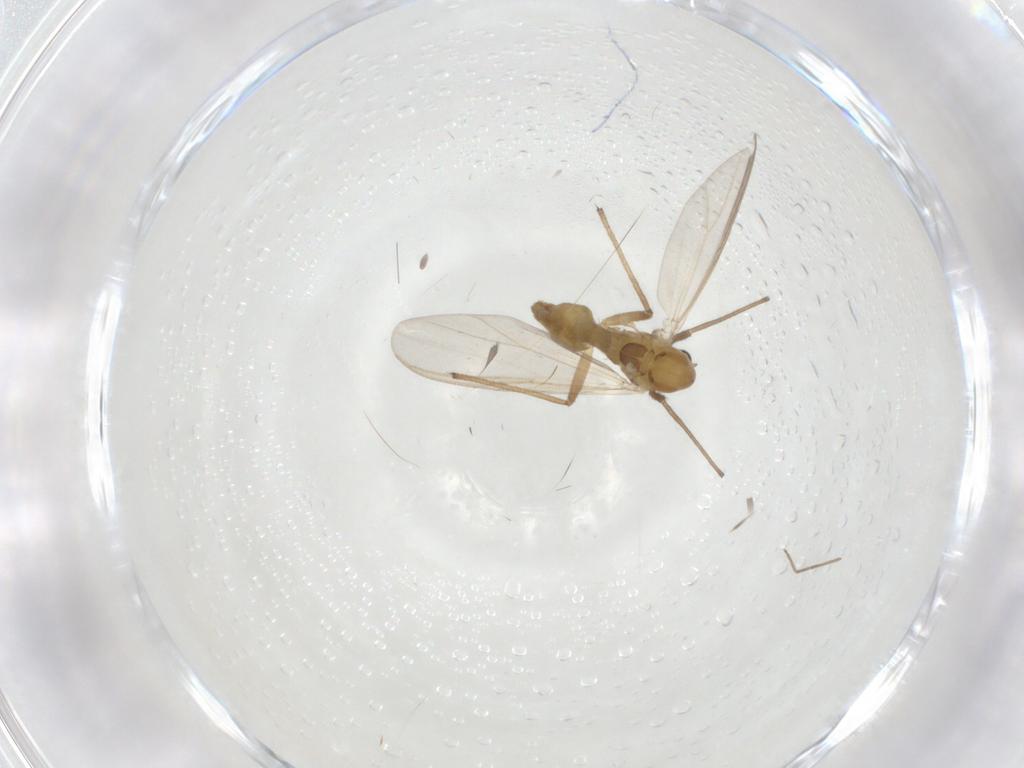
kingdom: Animalia
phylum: Arthropoda
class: Insecta
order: Diptera
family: Chironomidae
